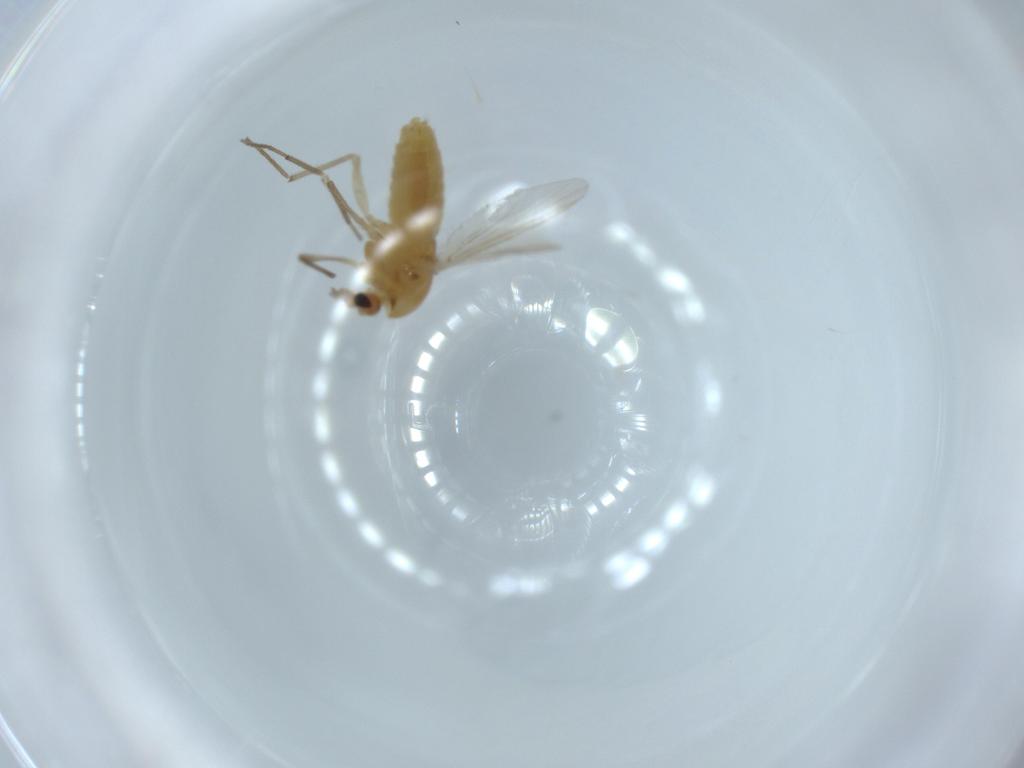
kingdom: Animalia
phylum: Arthropoda
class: Insecta
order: Diptera
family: Chironomidae
